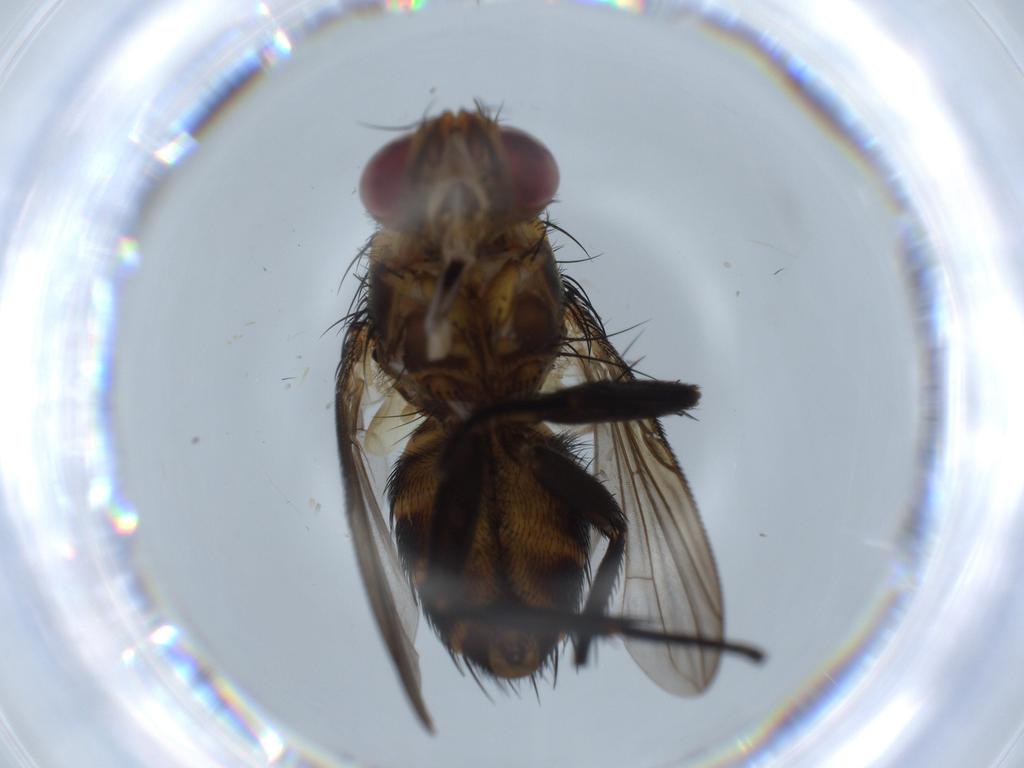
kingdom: Animalia
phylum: Arthropoda
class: Insecta
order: Diptera
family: Sciaridae
